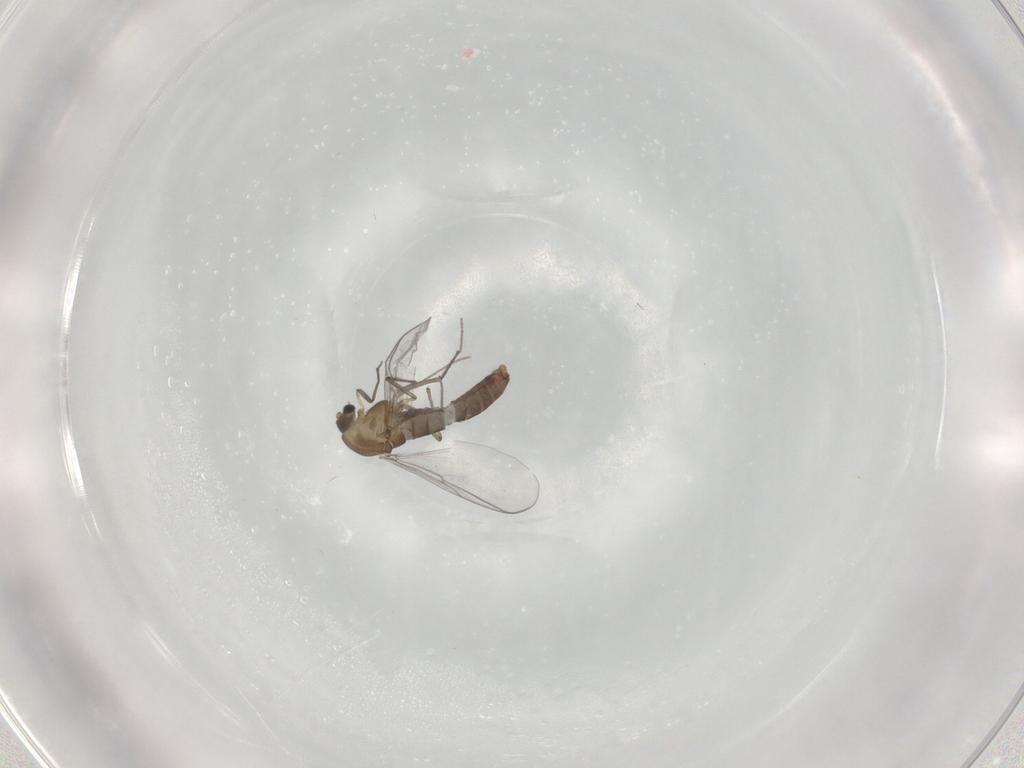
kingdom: Animalia
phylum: Arthropoda
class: Insecta
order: Diptera
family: Chironomidae
